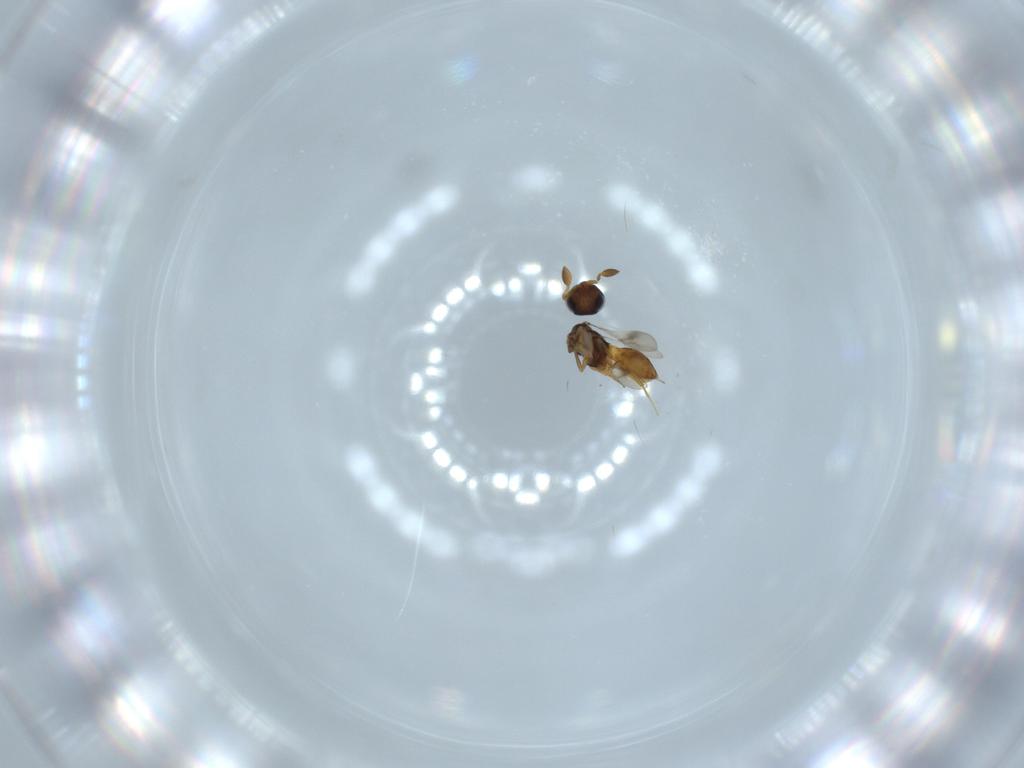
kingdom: Animalia
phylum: Arthropoda
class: Insecta
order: Hymenoptera
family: Scelionidae
